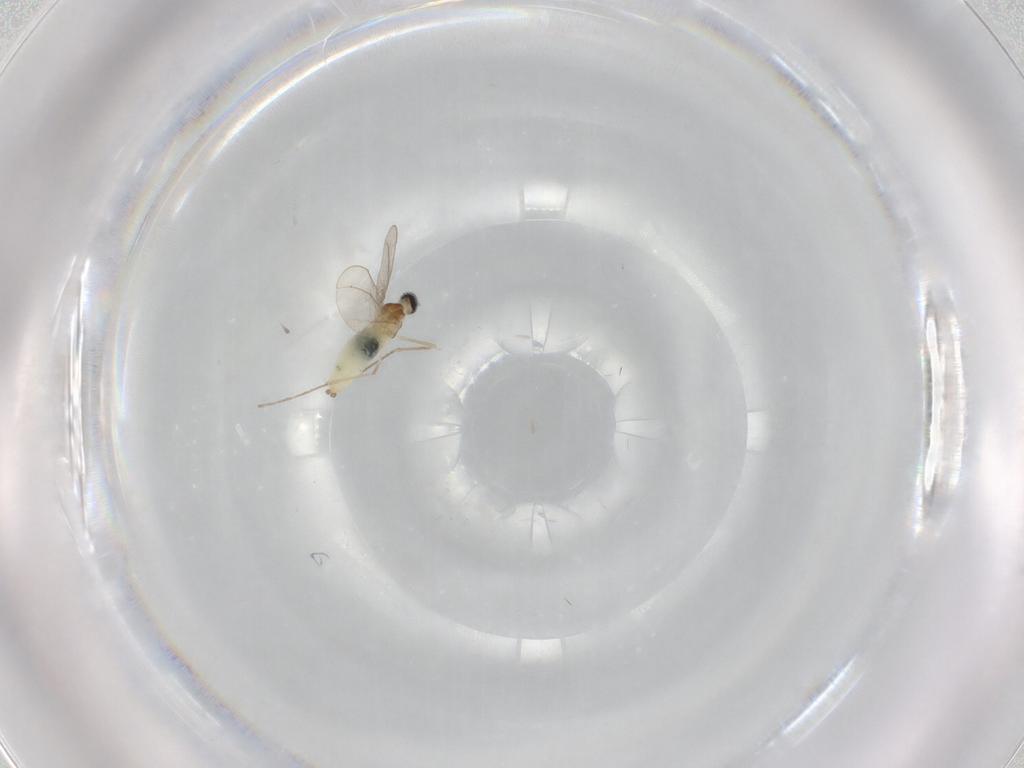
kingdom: Animalia
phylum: Arthropoda
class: Insecta
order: Diptera
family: Cecidomyiidae
